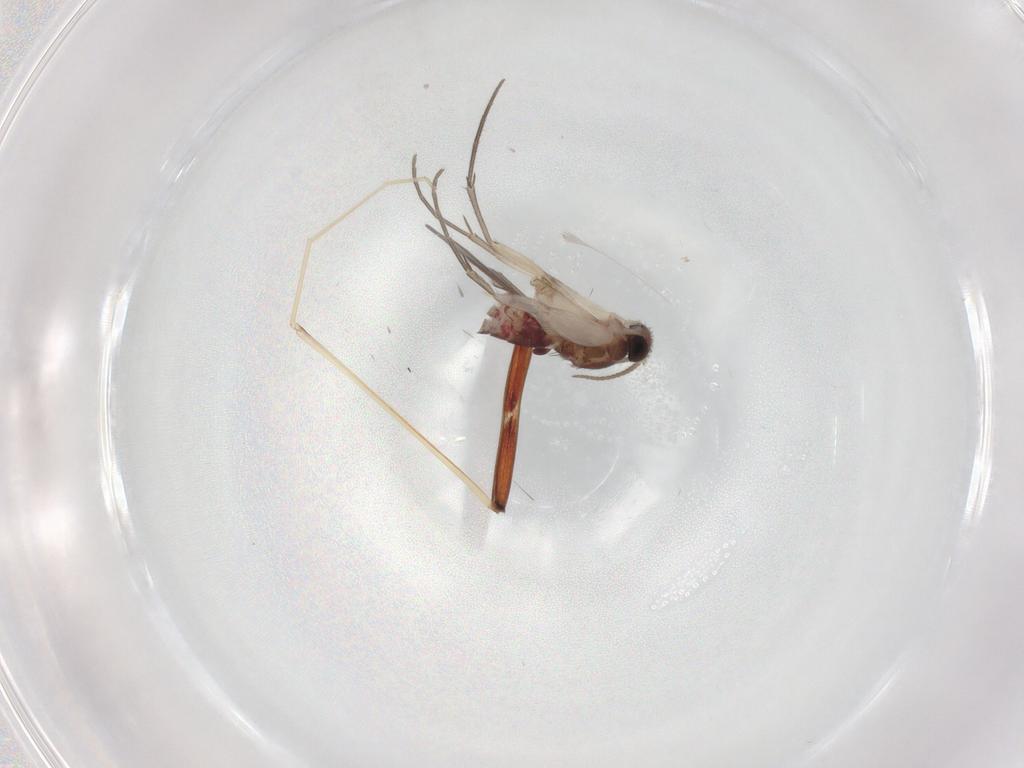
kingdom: Animalia
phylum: Arthropoda
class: Insecta
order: Diptera
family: Mycetophilidae
